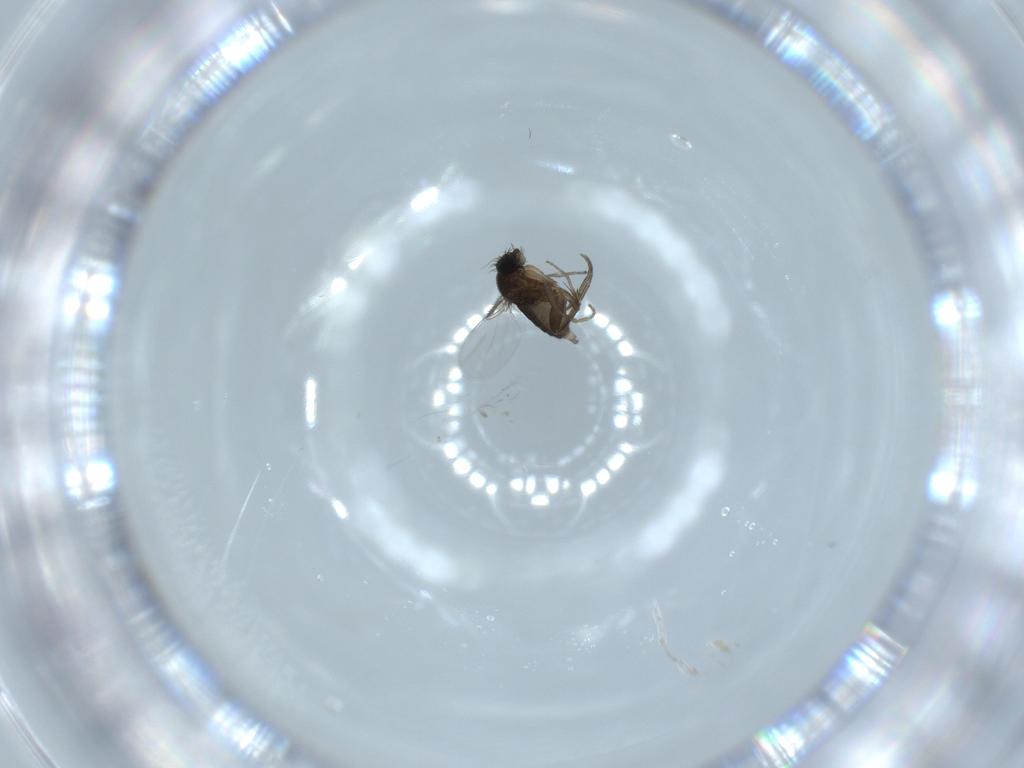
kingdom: Animalia
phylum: Arthropoda
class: Insecta
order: Diptera
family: Phoridae
